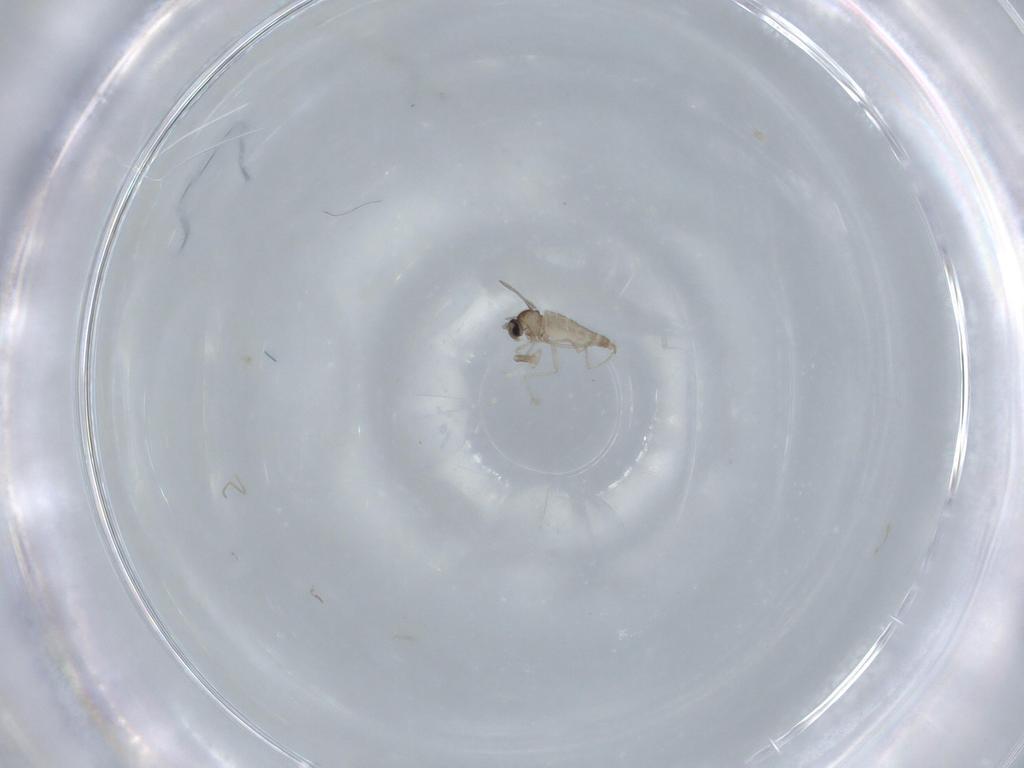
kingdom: Animalia
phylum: Arthropoda
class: Insecta
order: Diptera
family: Cecidomyiidae
